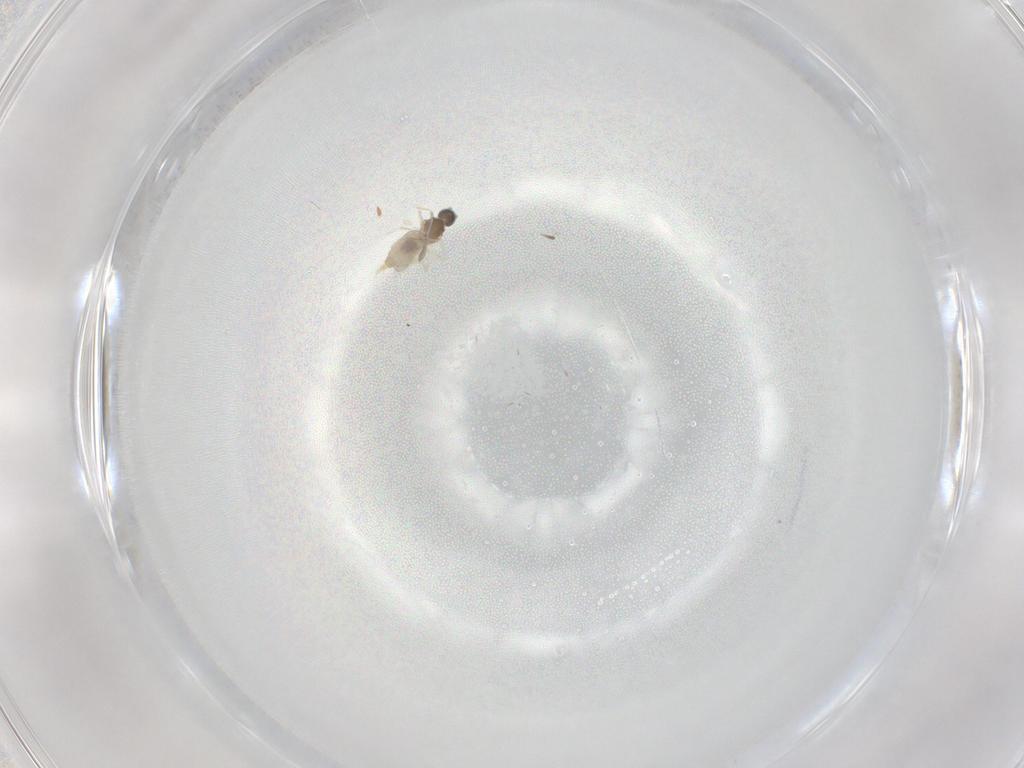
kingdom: Animalia
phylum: Arthropoda
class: Insecta
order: Diptera
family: Cecidomyiidae
